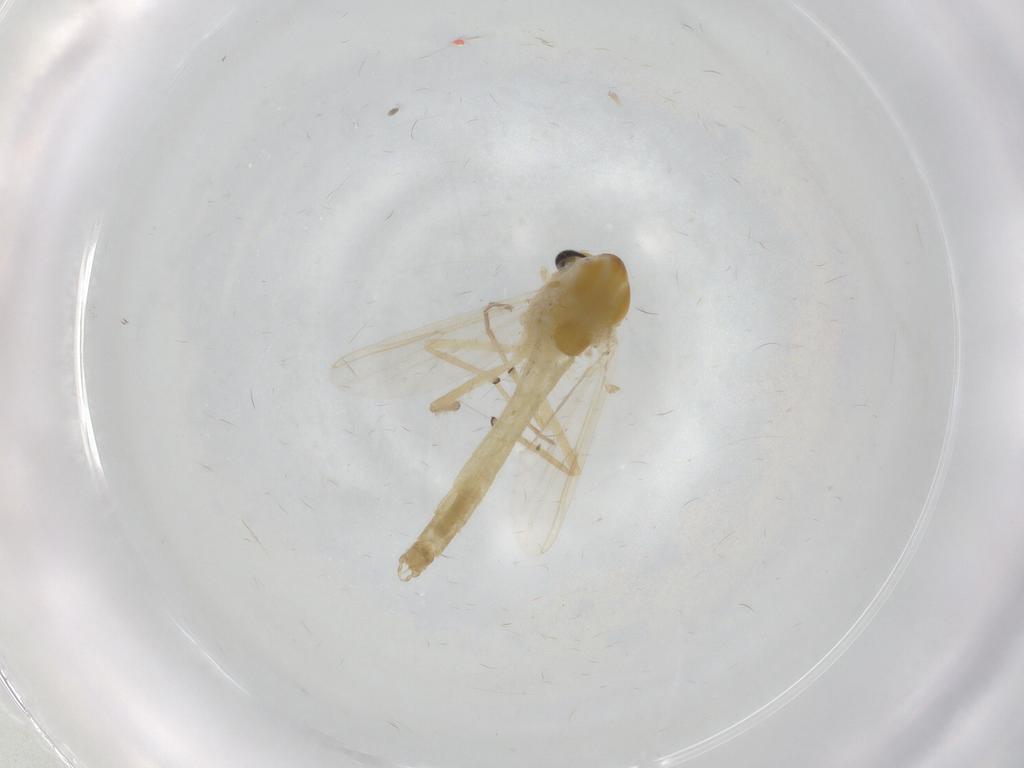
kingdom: Animalia
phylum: Arthropoda
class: Insecta
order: Diptera
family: Chironomidae
